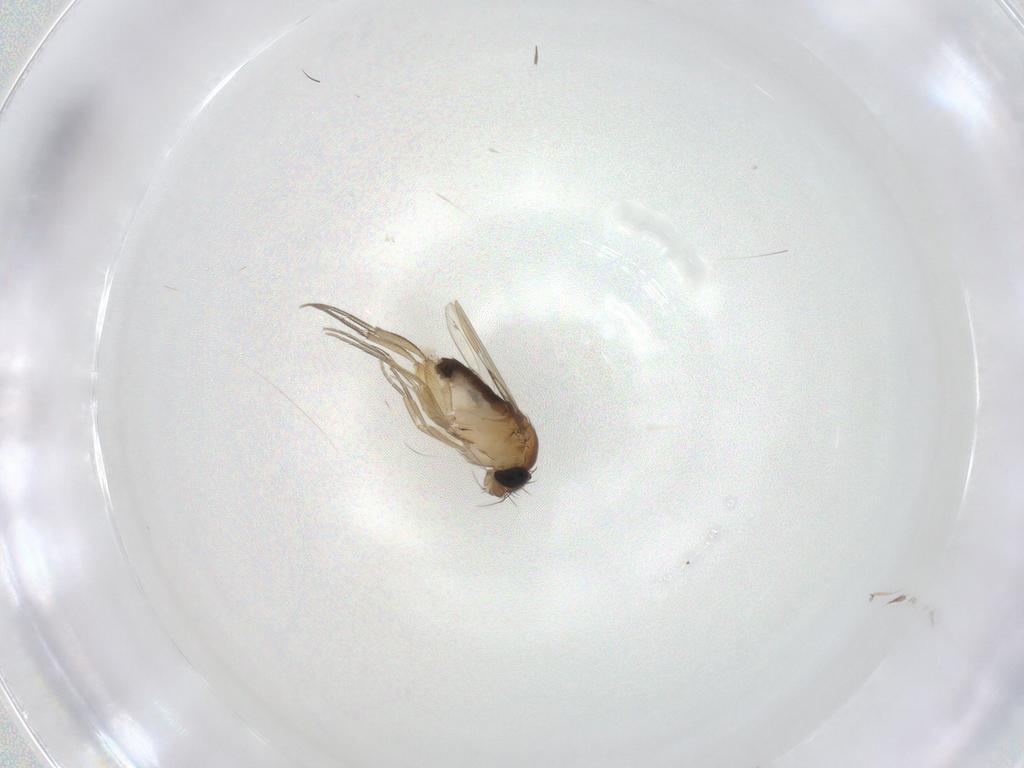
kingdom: Animalia
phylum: Arthropoda
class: Insecta
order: Diptera
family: Phoridae
